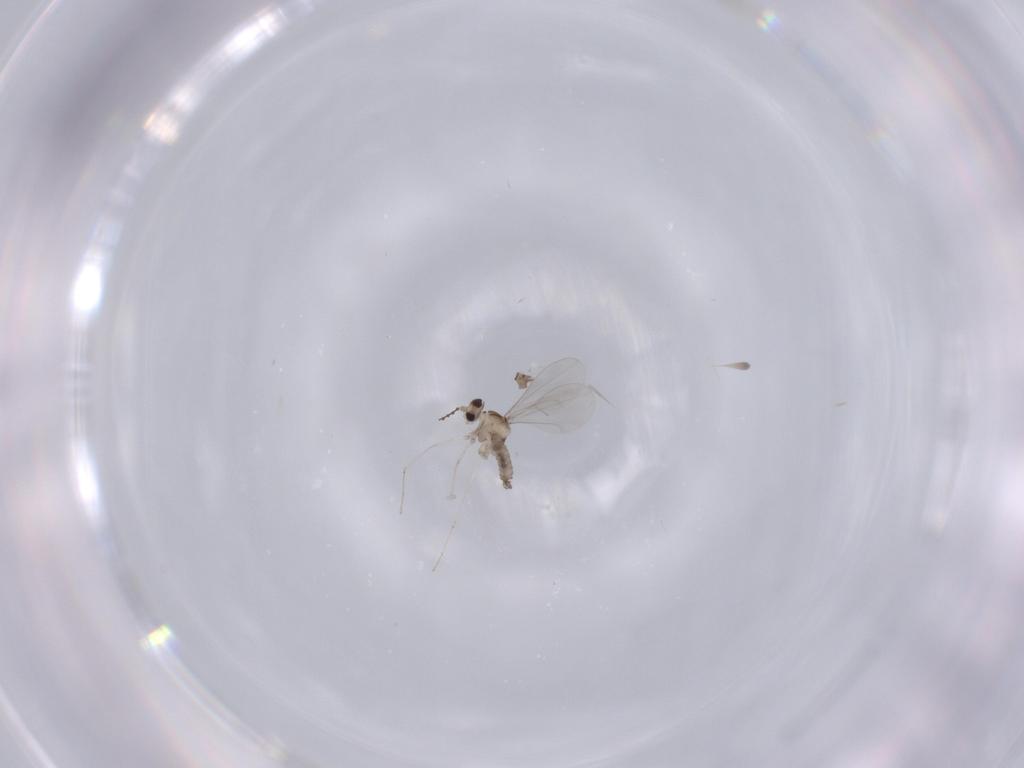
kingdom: Animalia
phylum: Arthropoda
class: Insecta
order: Diptera
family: Cecidomyiidae
